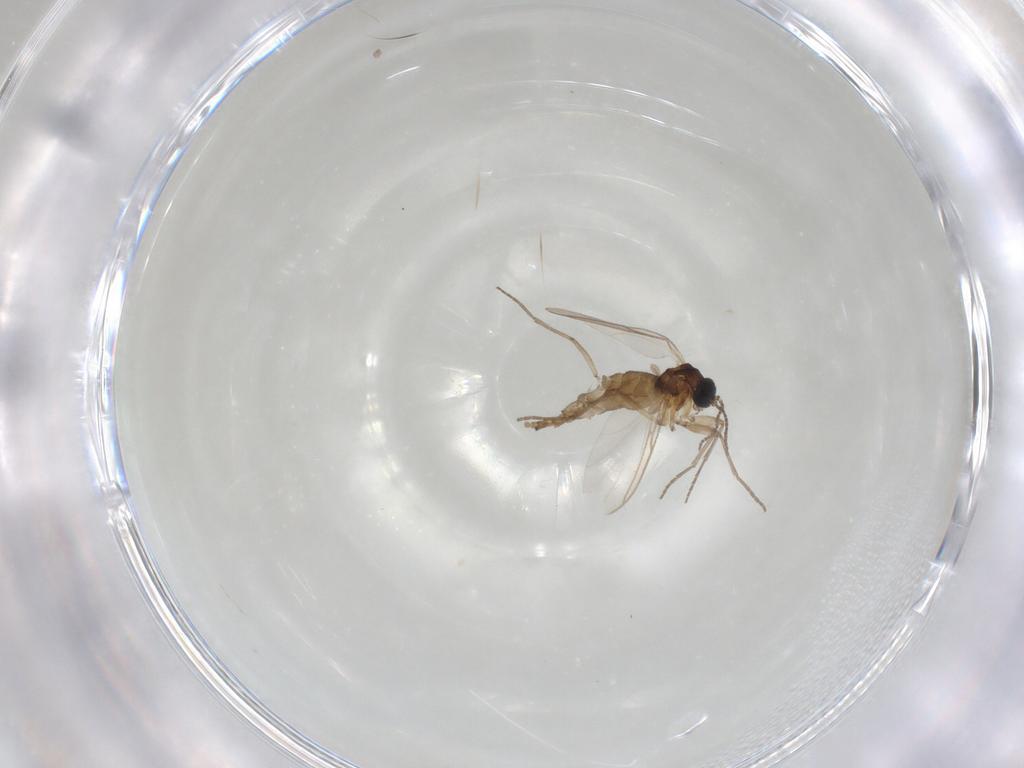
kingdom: Animalia
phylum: Arthropoda
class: Insecta
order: Diptera
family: Sciaridae
